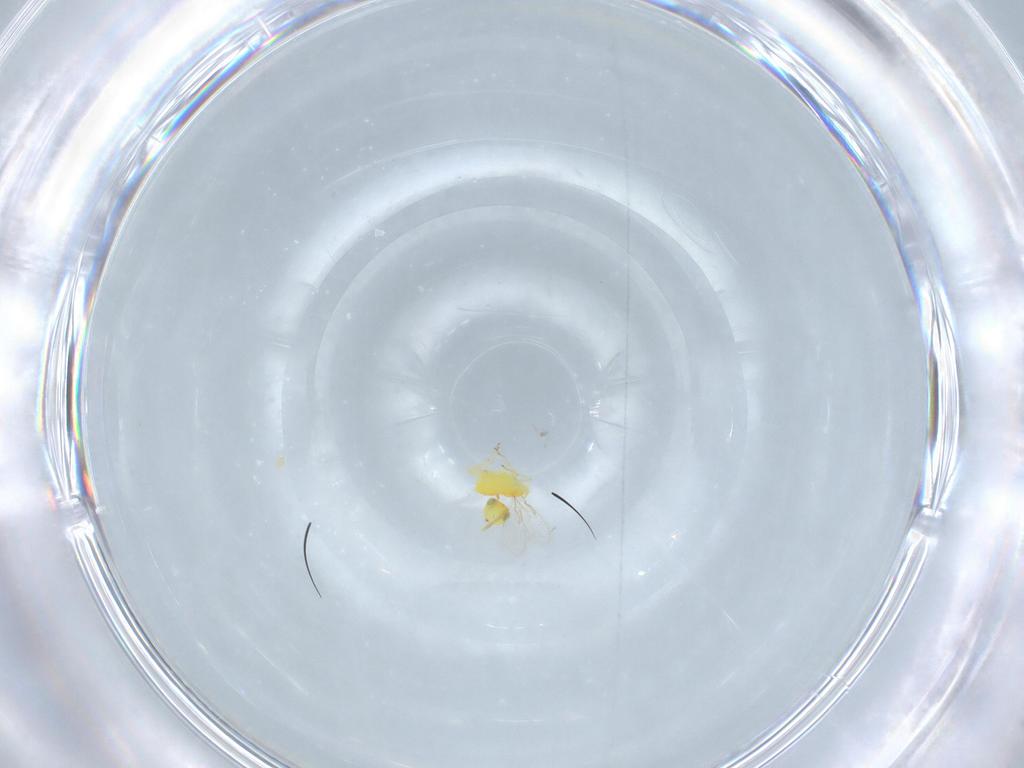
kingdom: Animalia
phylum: Arthropoda
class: Insecta
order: Hymenoptera
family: Aphelinidae
